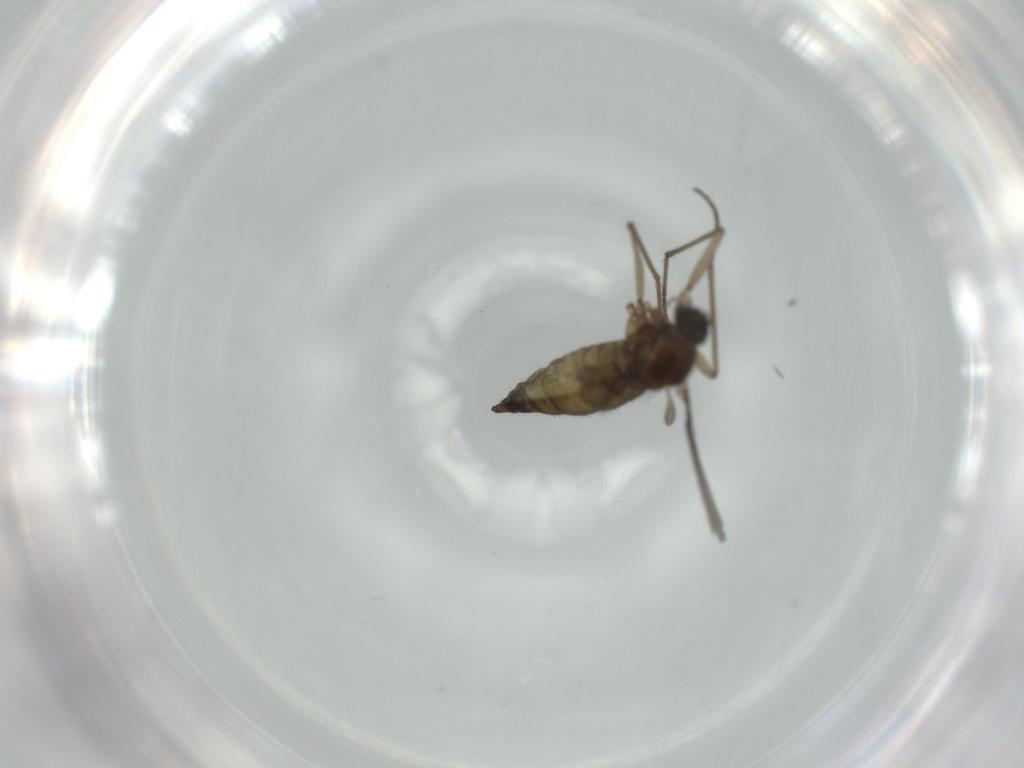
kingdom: Animalia
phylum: Arthropoda
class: Insecta
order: Diptera
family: Sciaridae
